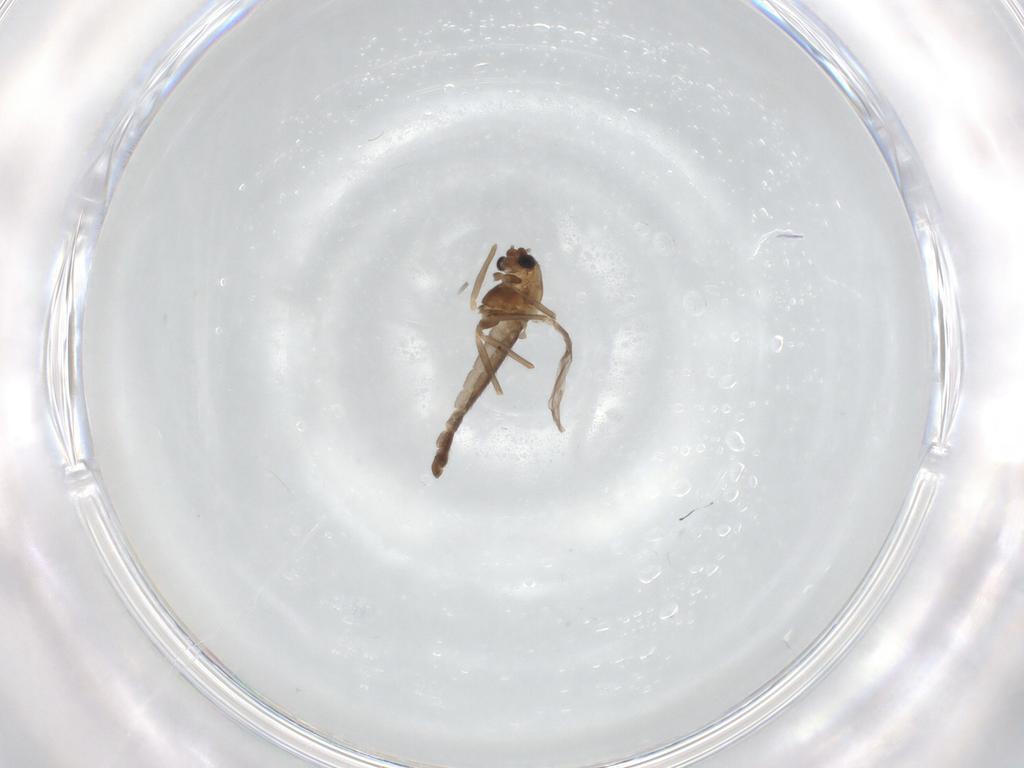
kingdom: Animalia
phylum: Arthropoda
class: Insecta
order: Diptera
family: Chironomidae
